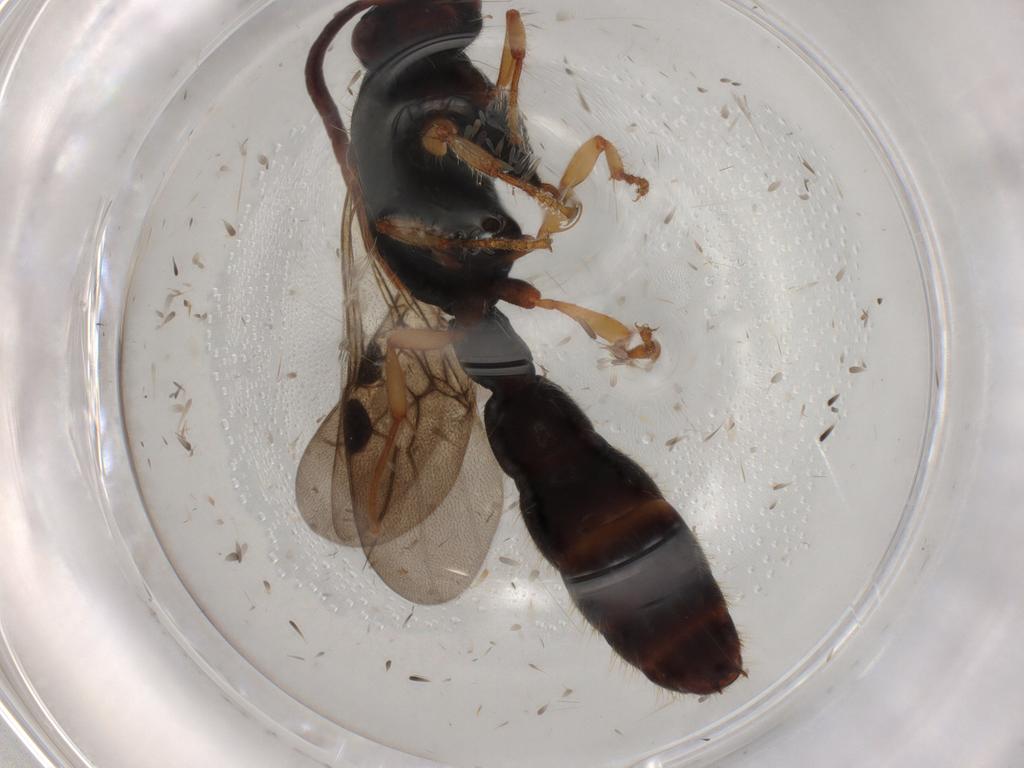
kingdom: Animalia
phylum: Arthropoda
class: Insecta
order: Hymenoptera
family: Formicidae
